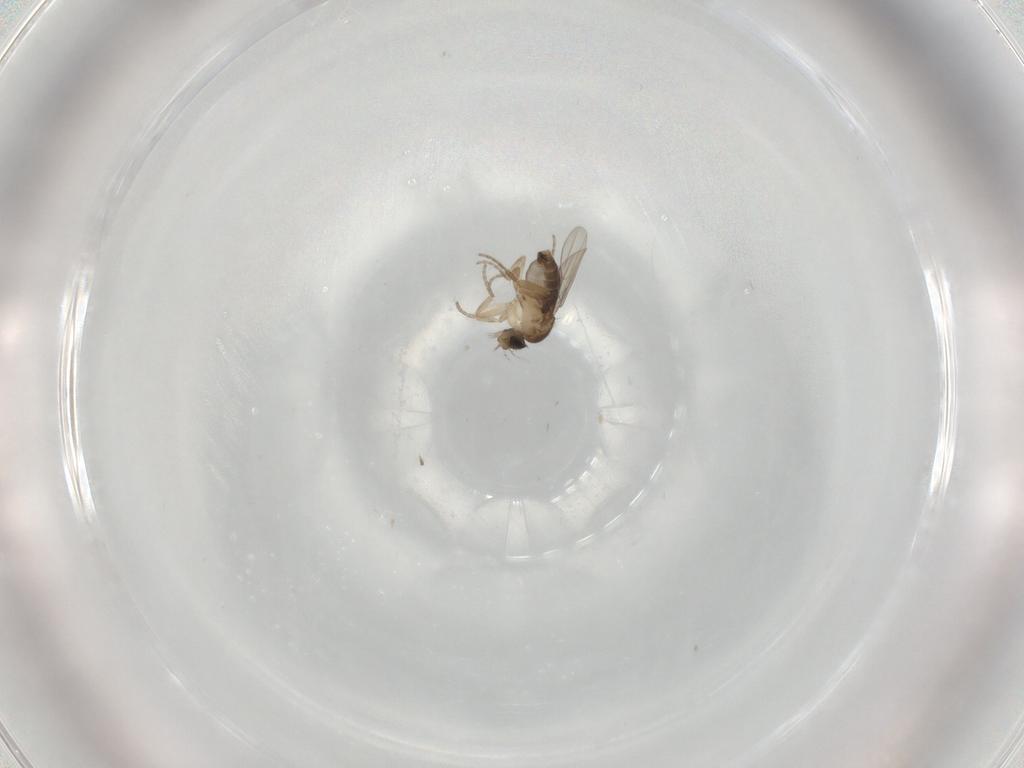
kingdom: Animalia
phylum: Arthropoda
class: Insecta
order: Diptera
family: Phoridae
